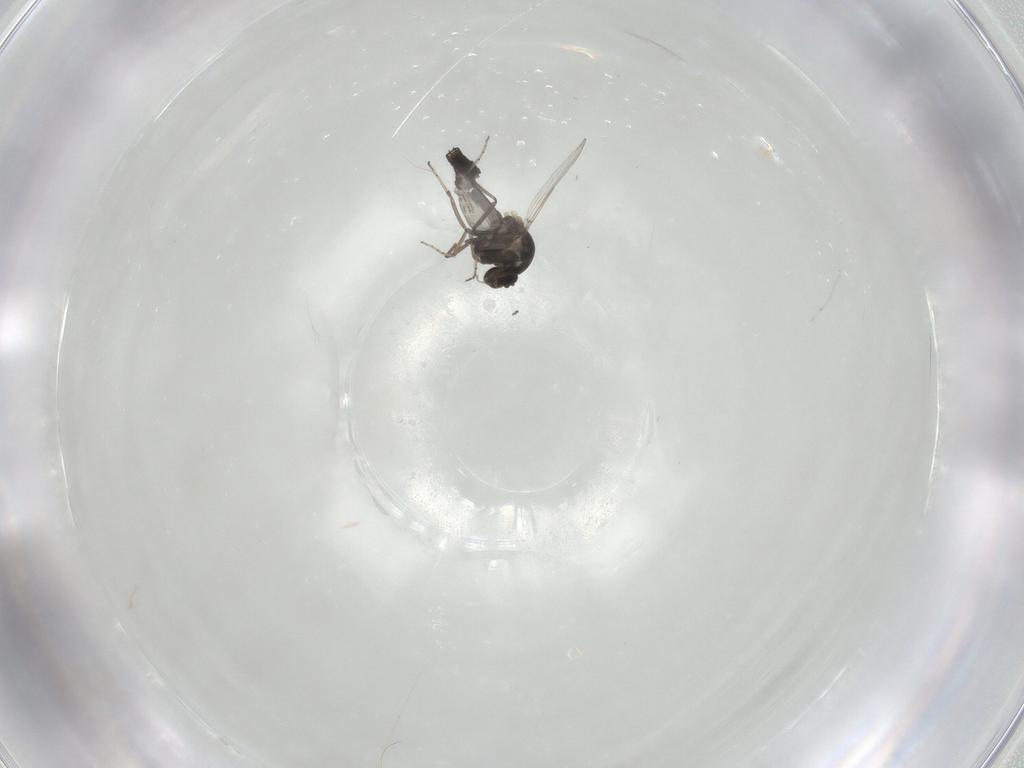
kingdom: Animalia
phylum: Arthropoda
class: Insecta
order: Diptera
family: Ceratopogonidae
